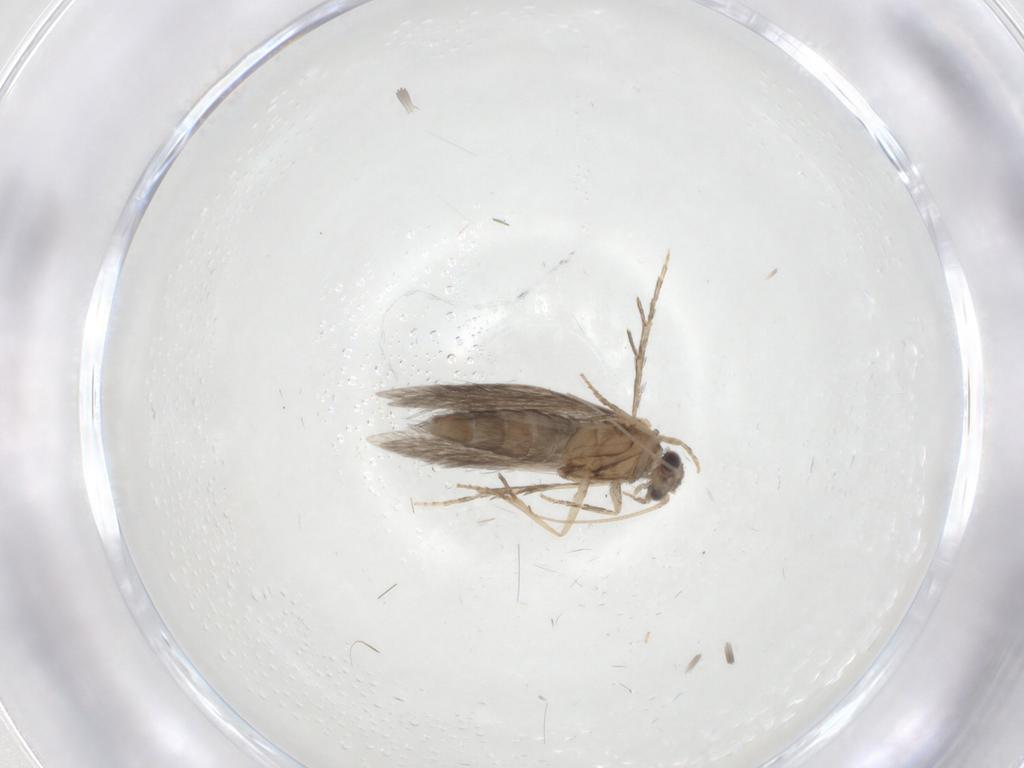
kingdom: Animalia
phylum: Arthropoda
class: Insecta
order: Trichoptera
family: Hydroptilidae
